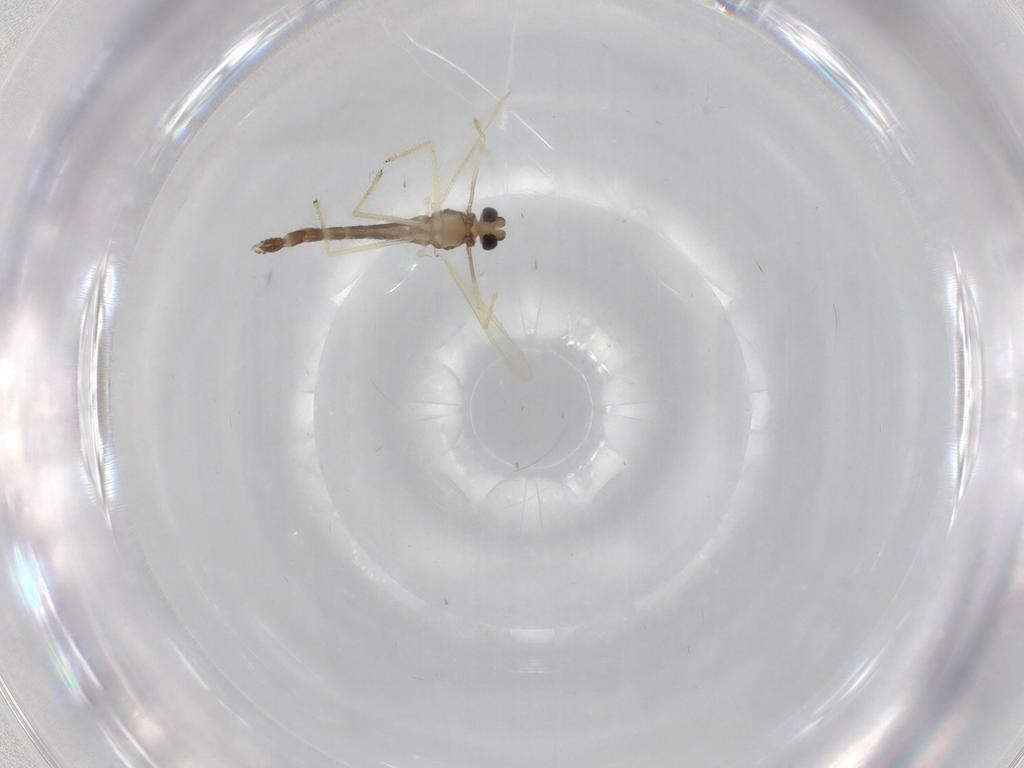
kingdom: Animalia
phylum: Arthropoda
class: Insecta
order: Diptera
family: Chironomidae
